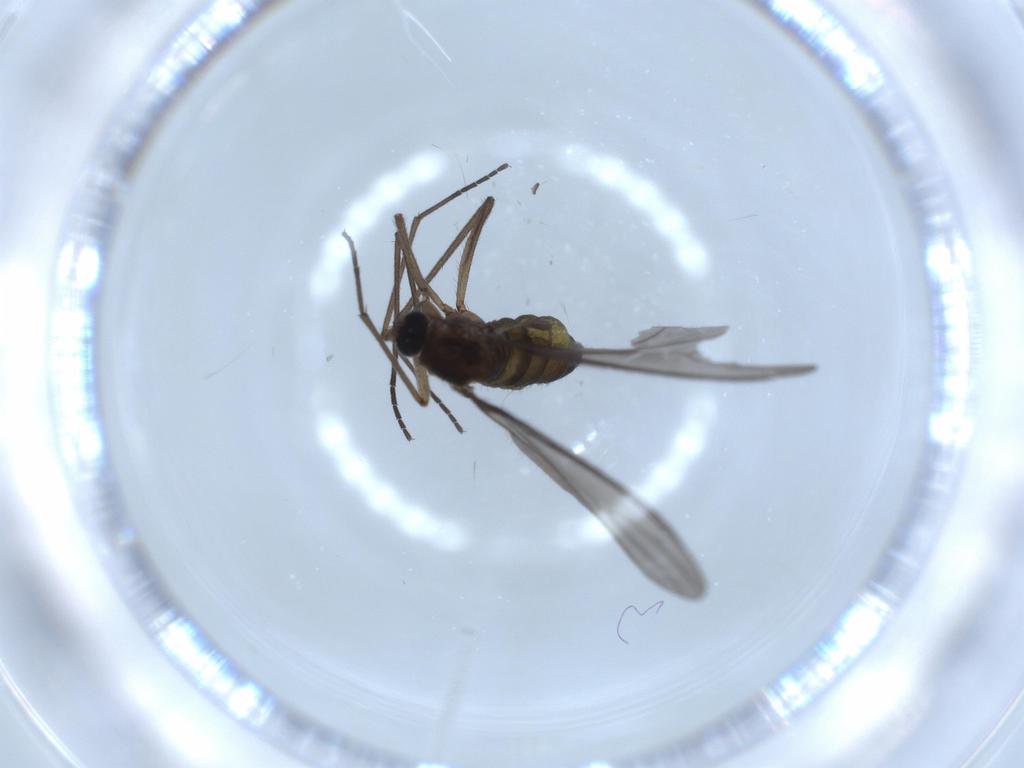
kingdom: Animalia
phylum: Arthropoda
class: Insecta
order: Diptera
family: Sciaridae
